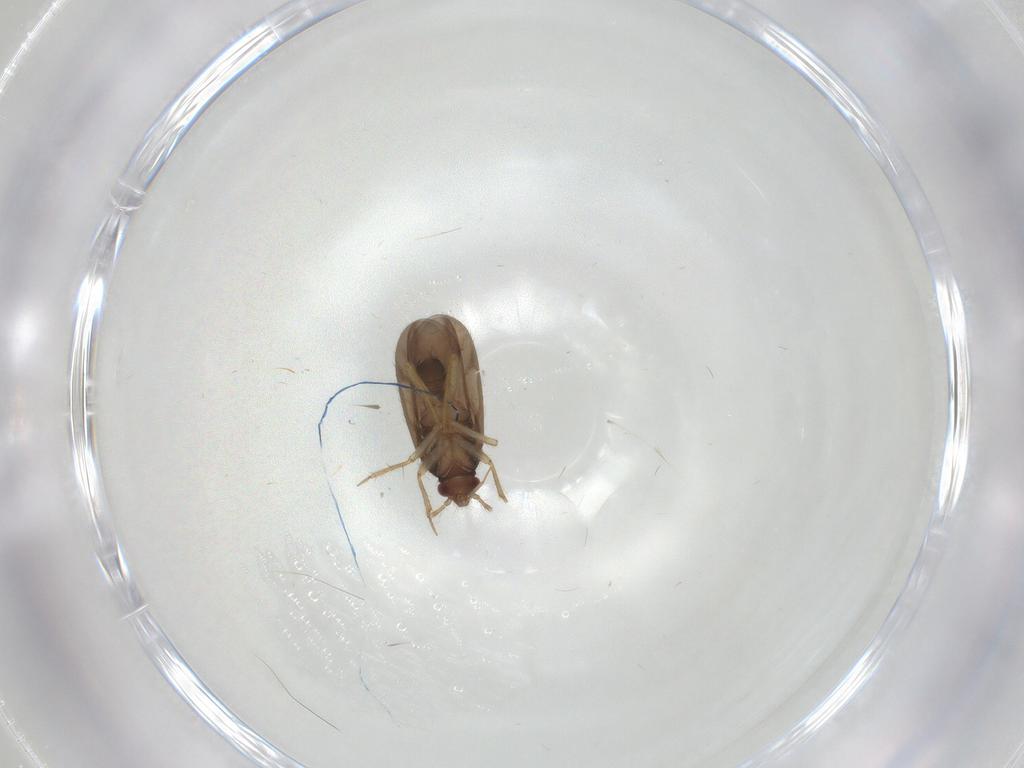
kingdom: Animalia
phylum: Arthropoda
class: Insecta
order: Hemiptera
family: Ceratocombidae
